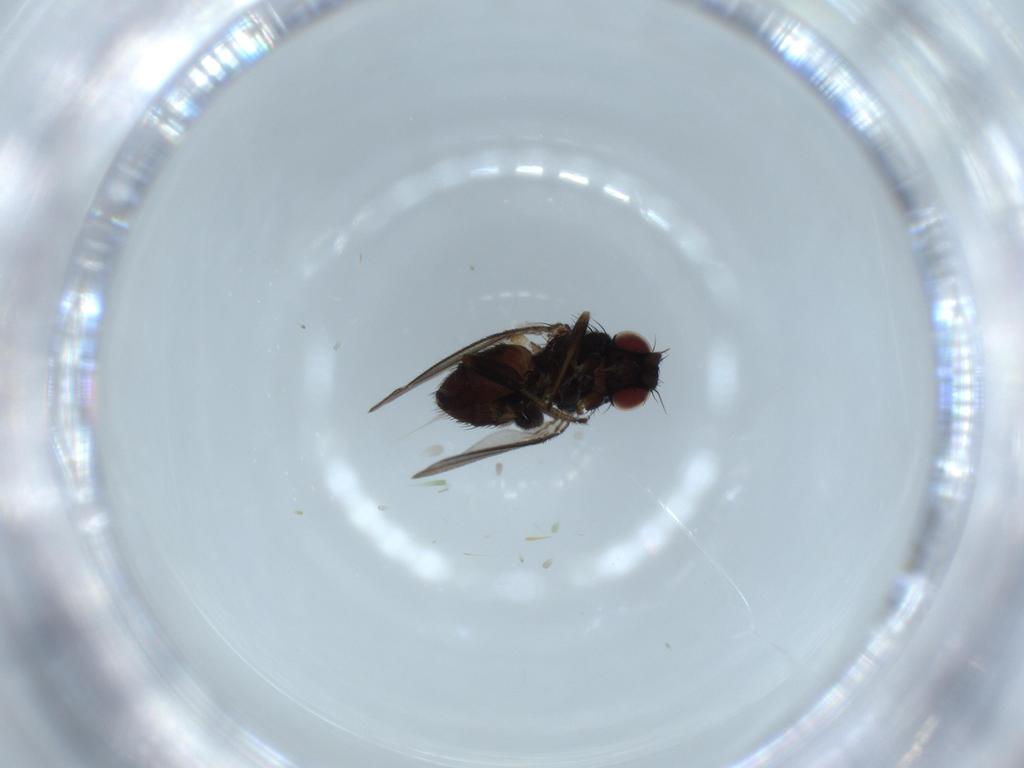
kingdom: Animalia
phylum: Arthropoda
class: Insecta
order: Diptera
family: Milichiidae
